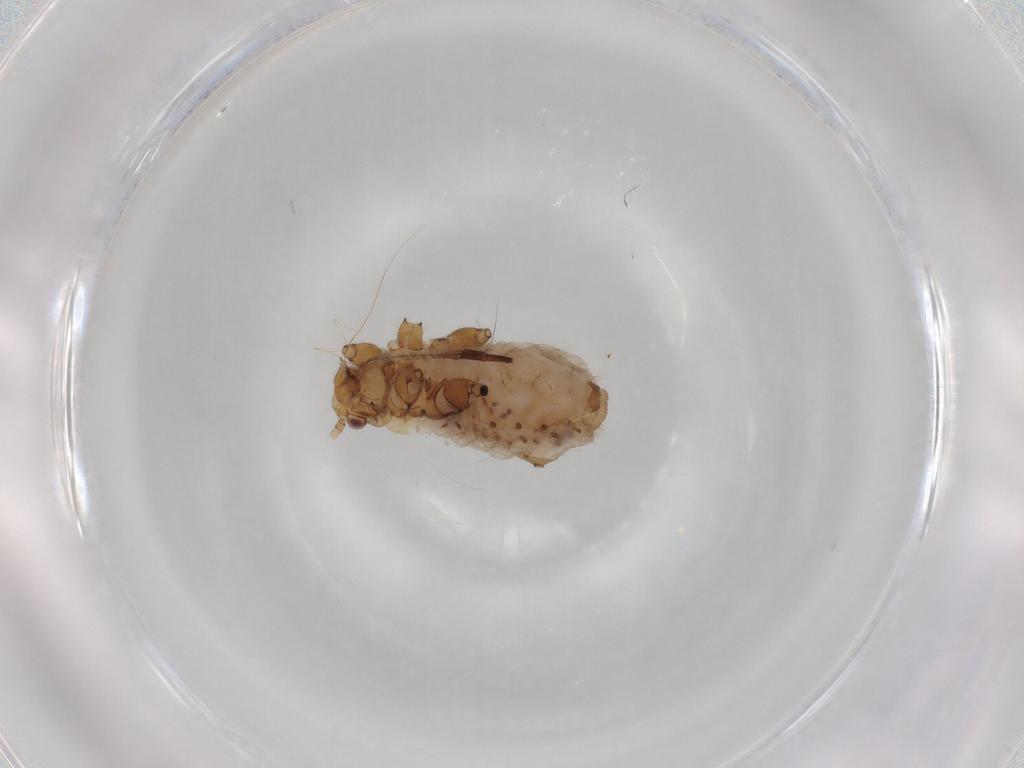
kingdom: Animalia
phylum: Arthropoda
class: Insecta
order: Hemiptera
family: Aphididae
